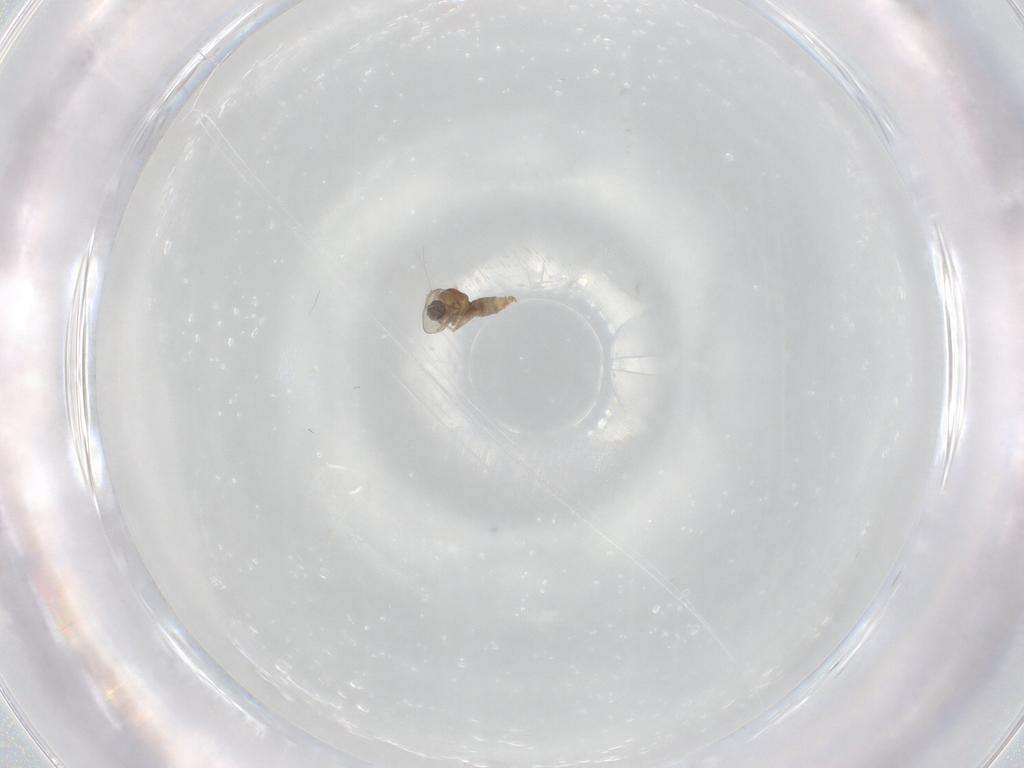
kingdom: Animalia
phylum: Arthropoda
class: Insecta
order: Diptera
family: Cecidomyiidae
